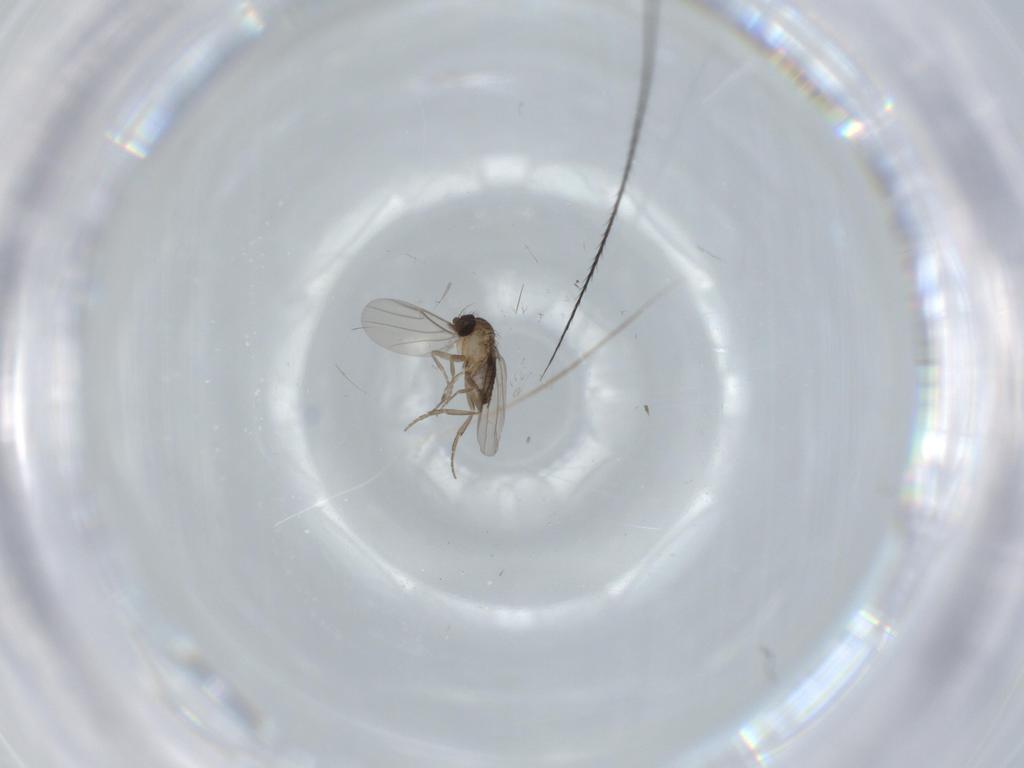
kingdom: Animalia
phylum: Arthropoda
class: Insecta
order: Diptera
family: Phoridae
